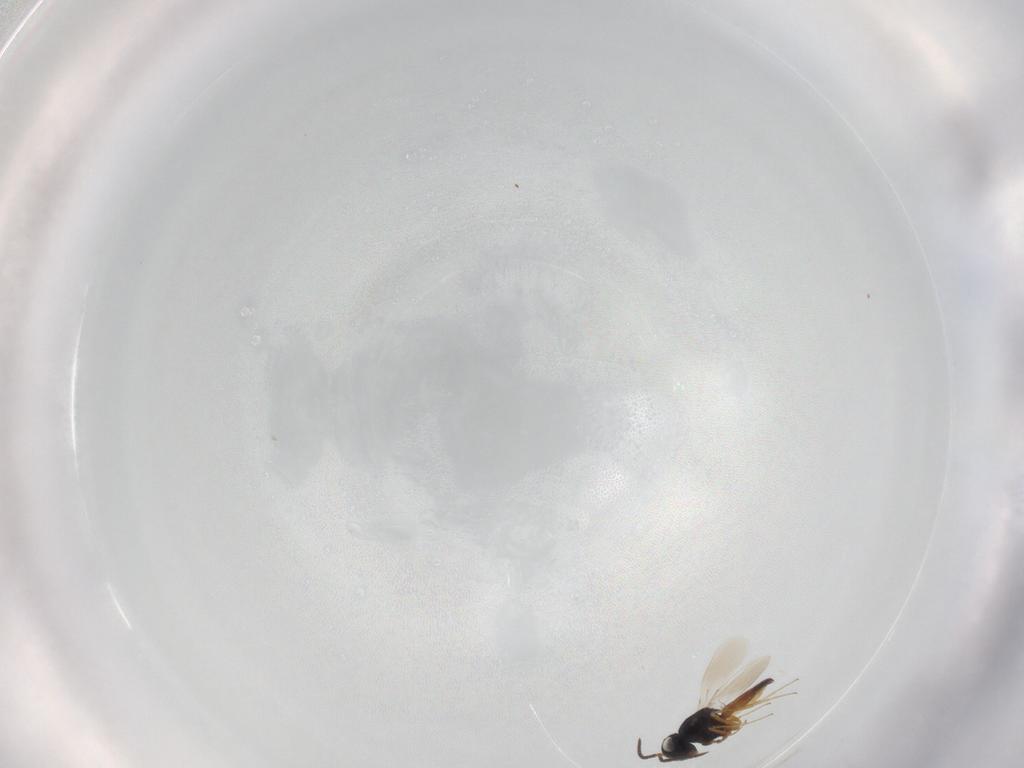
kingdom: Animalia
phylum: Arthropoda
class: Insecta
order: Hymenoptera
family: Scelionidae
